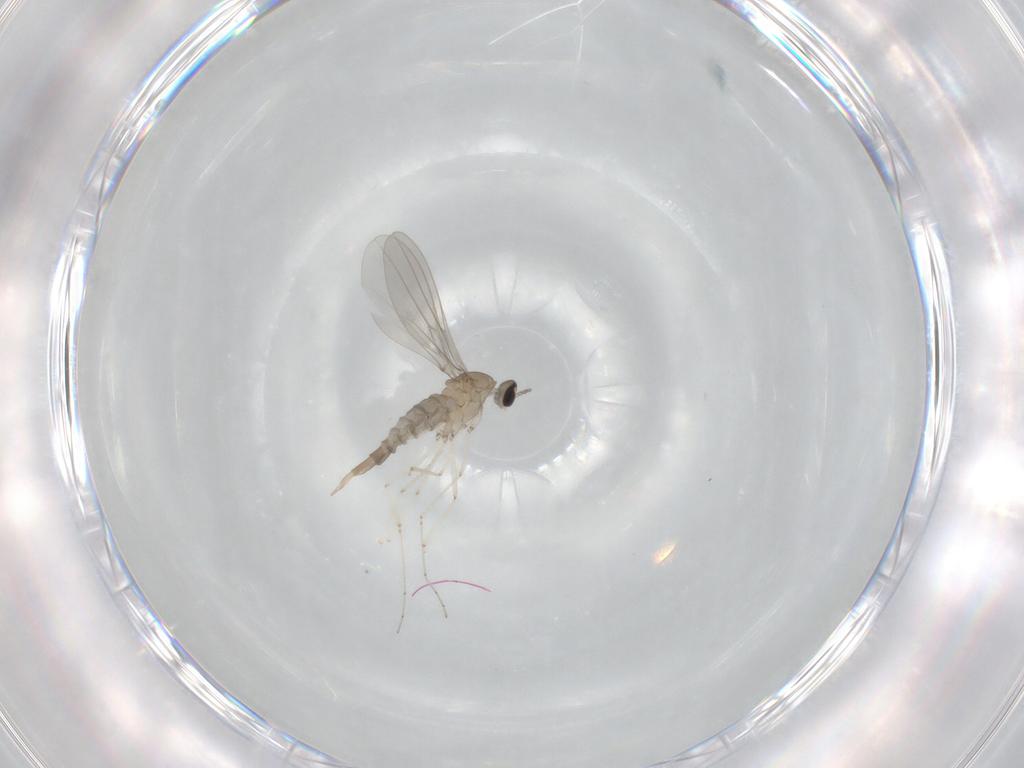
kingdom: Animalia
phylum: Arthropoda
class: Insecta
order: Diptera
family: Cecidomyiidae
